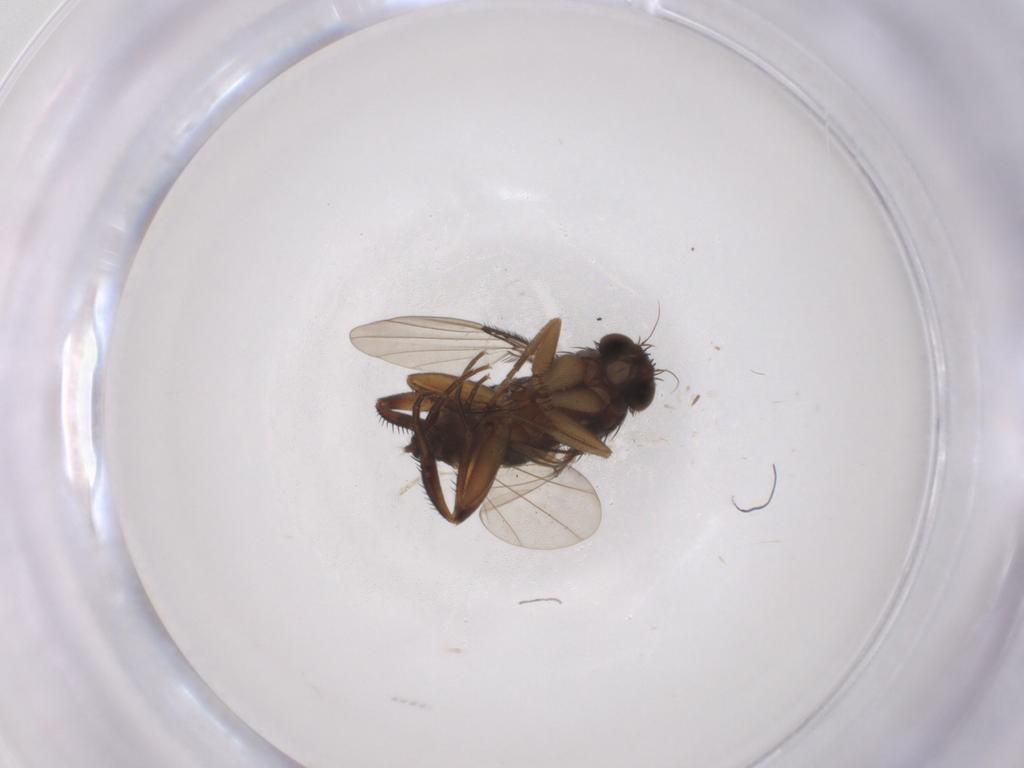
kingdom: Animalia
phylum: Arthropoda
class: Insecta
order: Diptera
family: Phoridae
